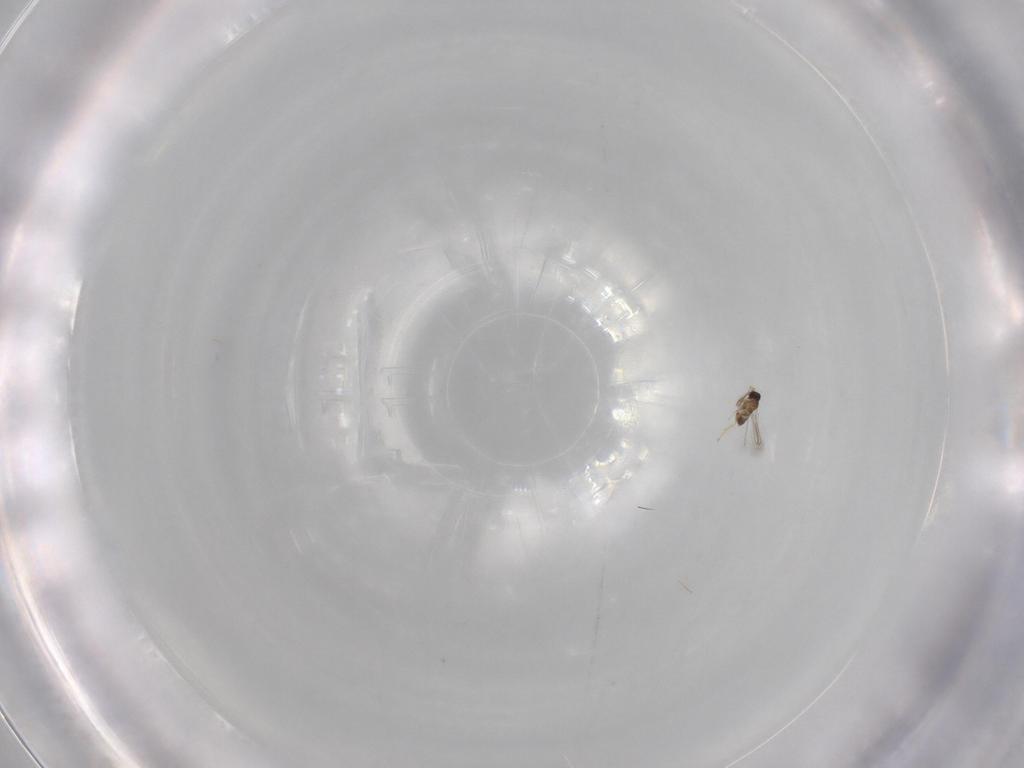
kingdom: Animalia
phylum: Arthropoda
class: Insecta
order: Hymenoptera
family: Mymaridae
